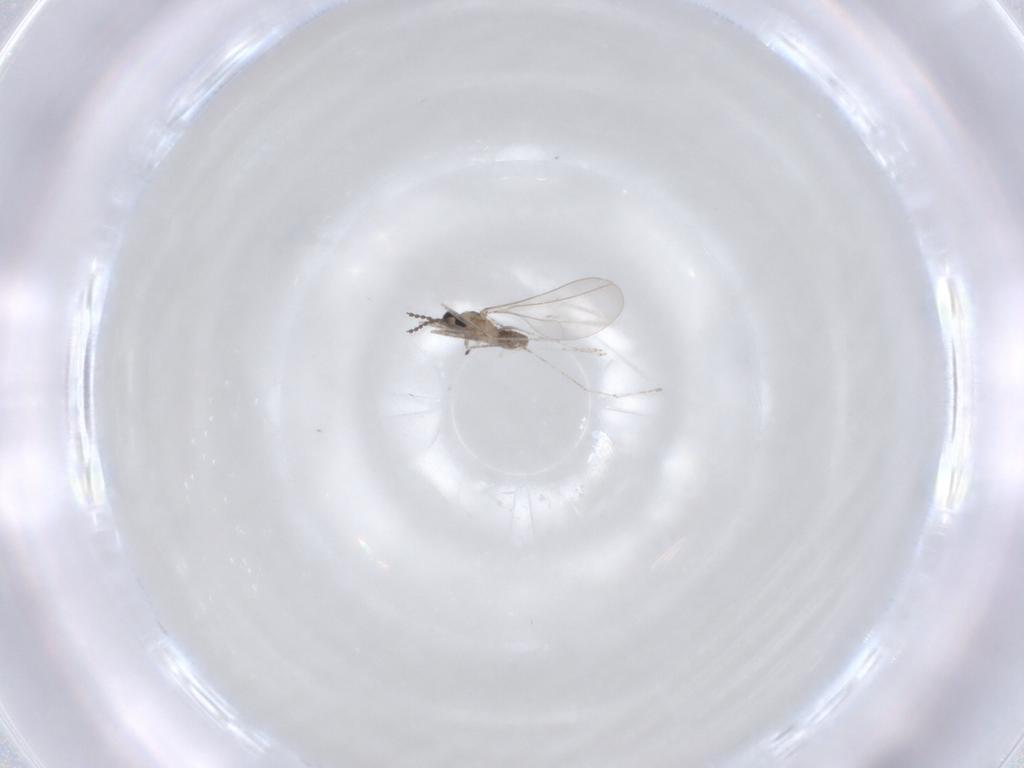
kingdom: Animalia
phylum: Arthropoda
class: Insecta
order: Diptera
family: Cecidomyiidae
